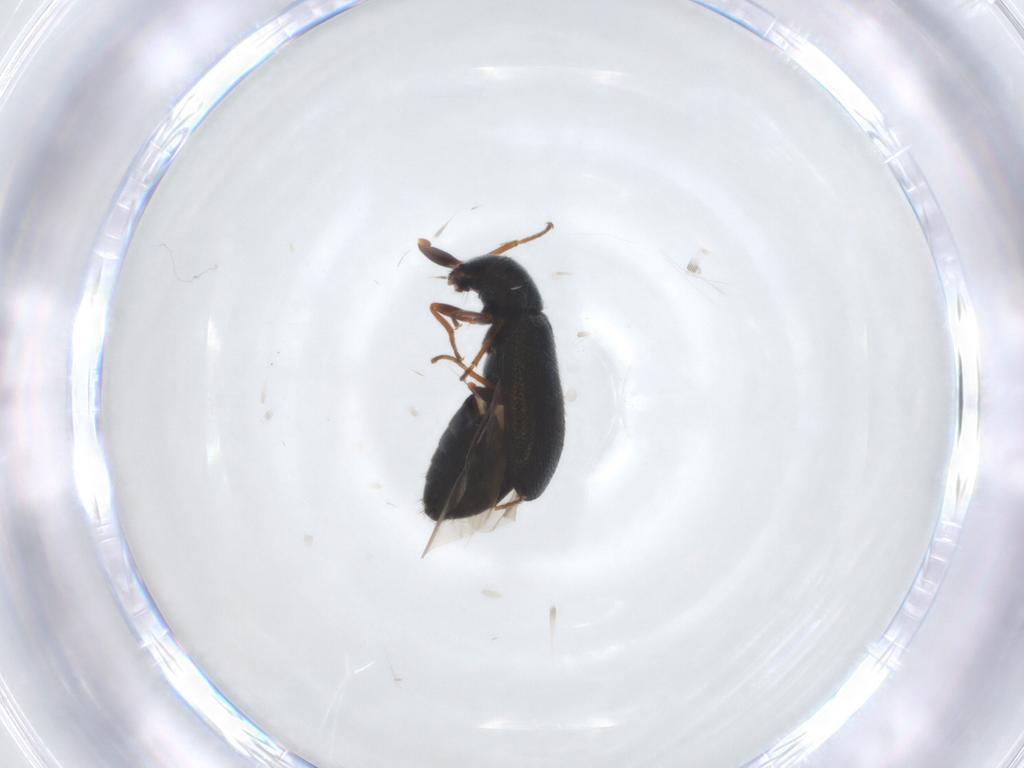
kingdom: Animalia
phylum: Arthropoda
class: Insecta
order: Coleoptera
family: Melyridae
